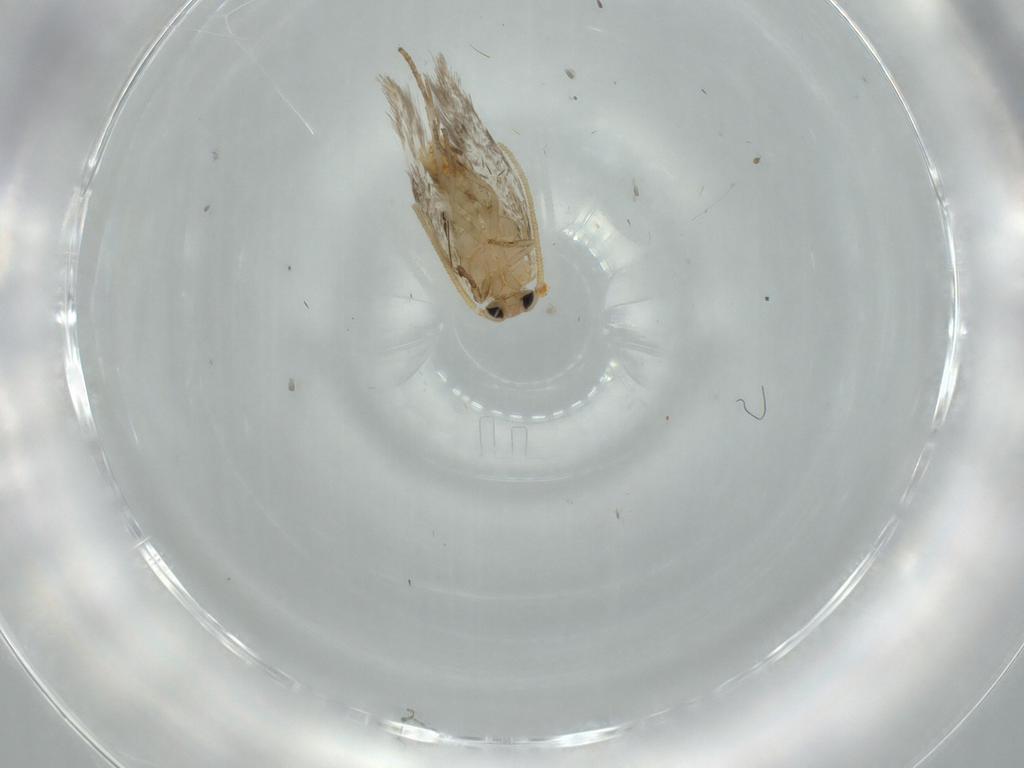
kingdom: Animalia
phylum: Arthropoda
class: Insecta
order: Lepidoptera
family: Nepticulidae
